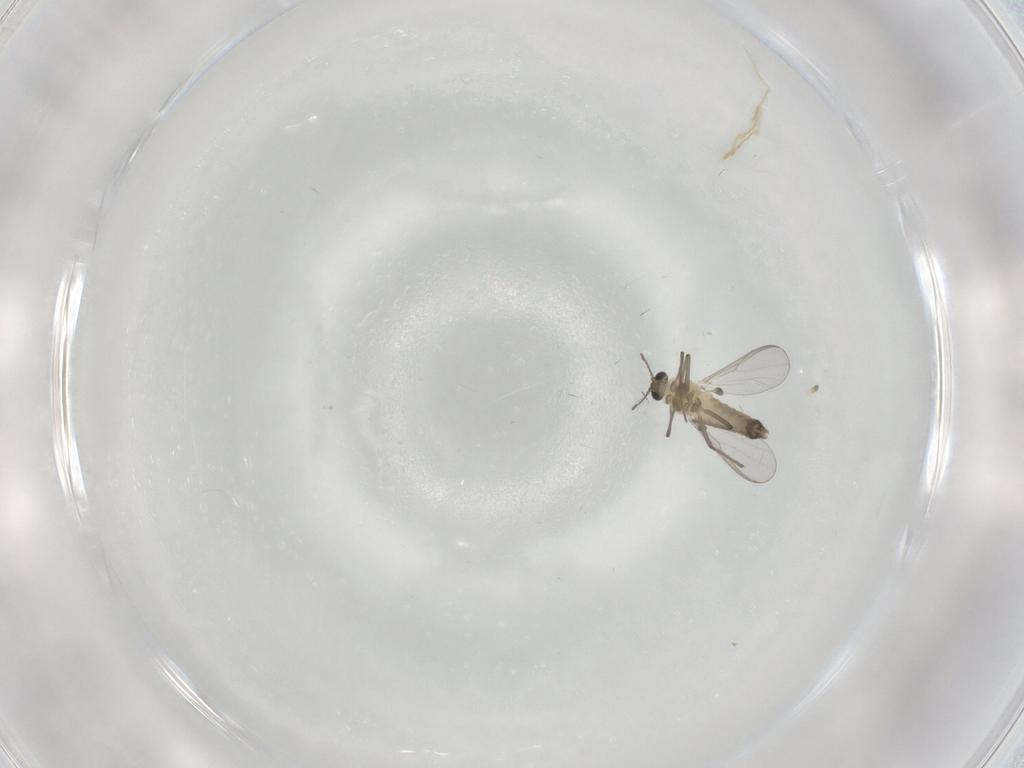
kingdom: Animalia
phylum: Arthropoda
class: Insecta
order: Diptera
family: Chironomidae
